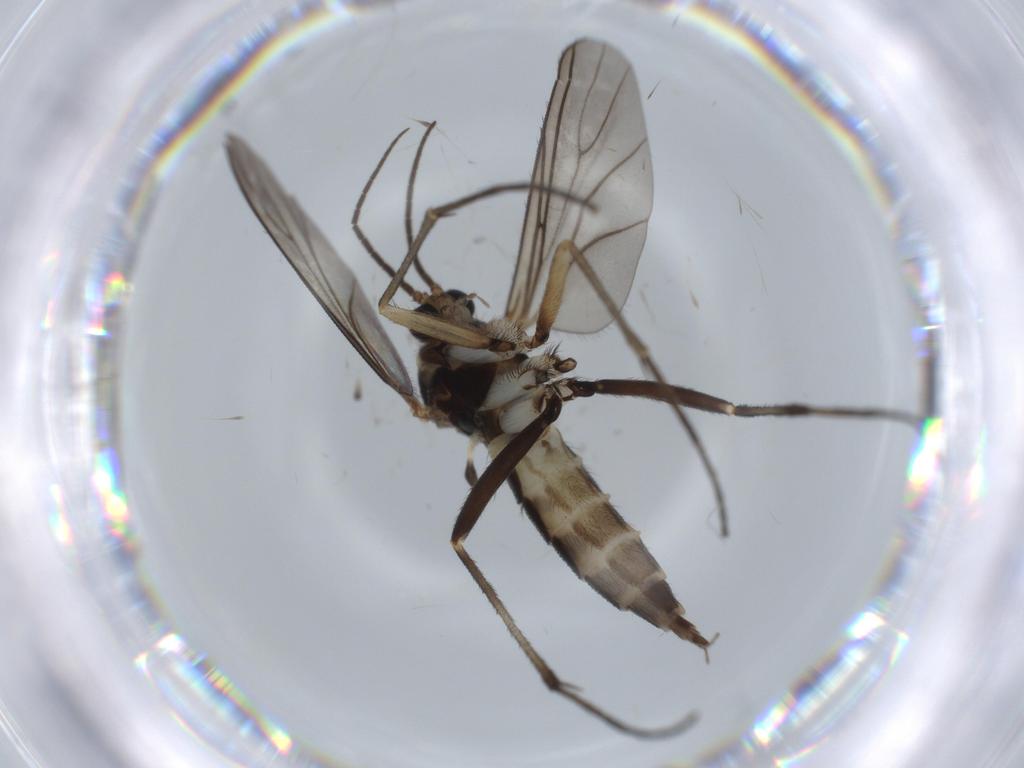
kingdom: Animalia
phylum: Arthropoda
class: Insecta
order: Diptera
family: Sciaridae
